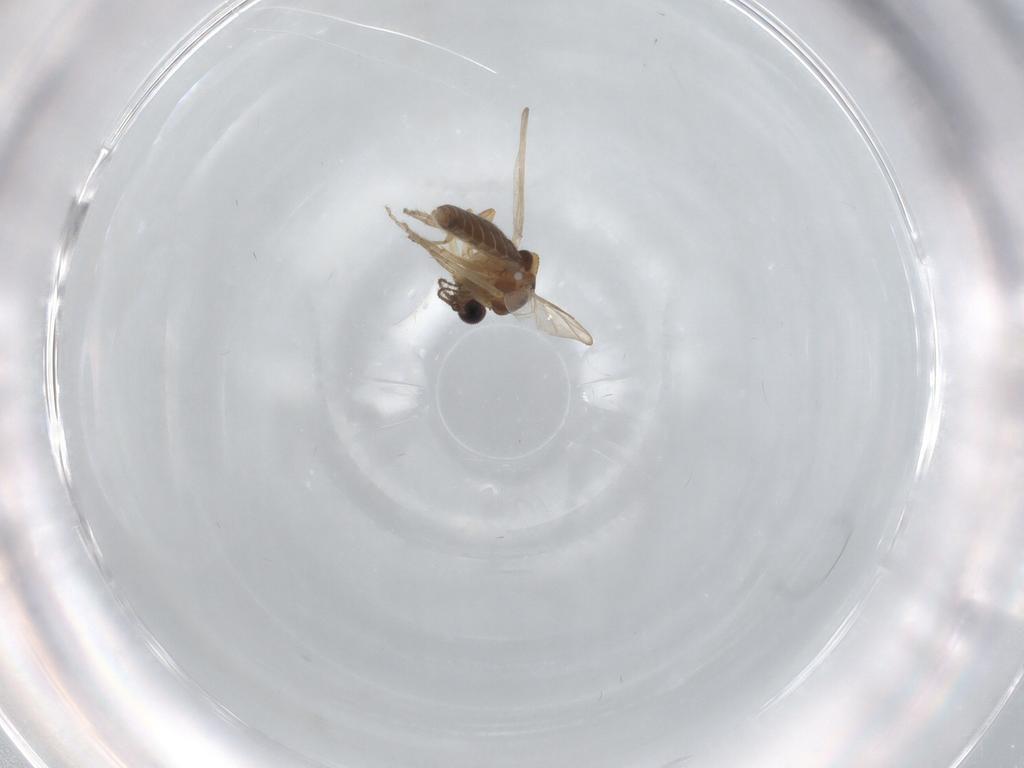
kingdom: Animalia
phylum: Arthropoda
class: Insecta
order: Diptera
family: Ceratopogonidae
